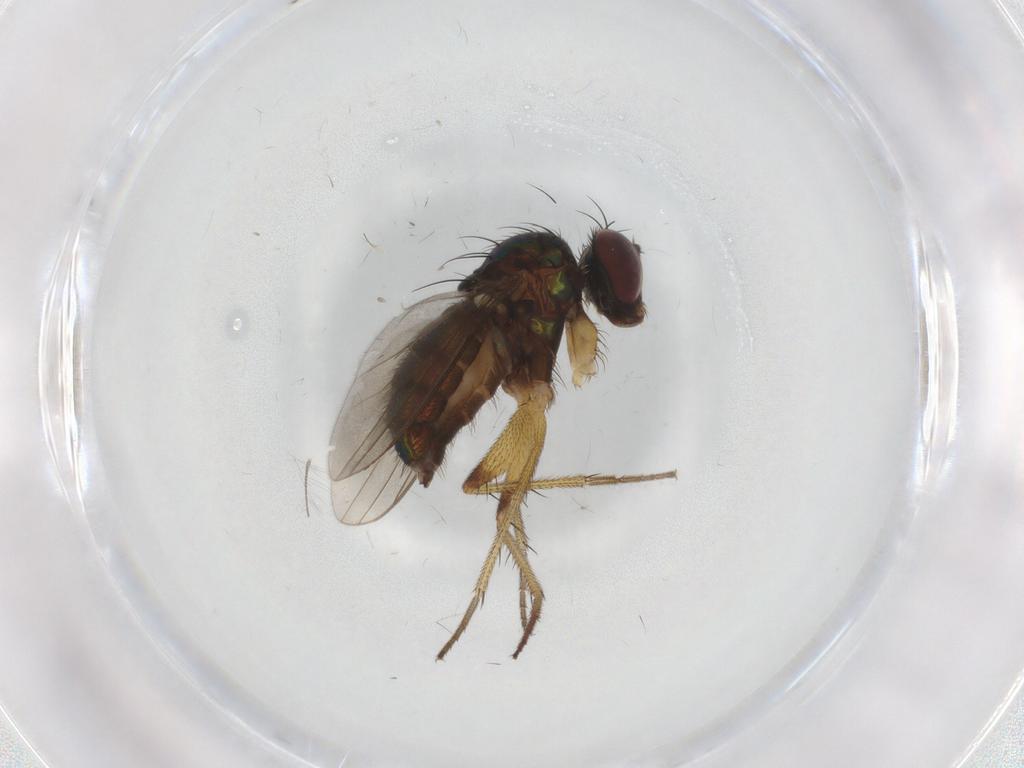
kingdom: Animalia
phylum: Arthropoda
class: Insecta
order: Diptera
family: Dolichopodidae
